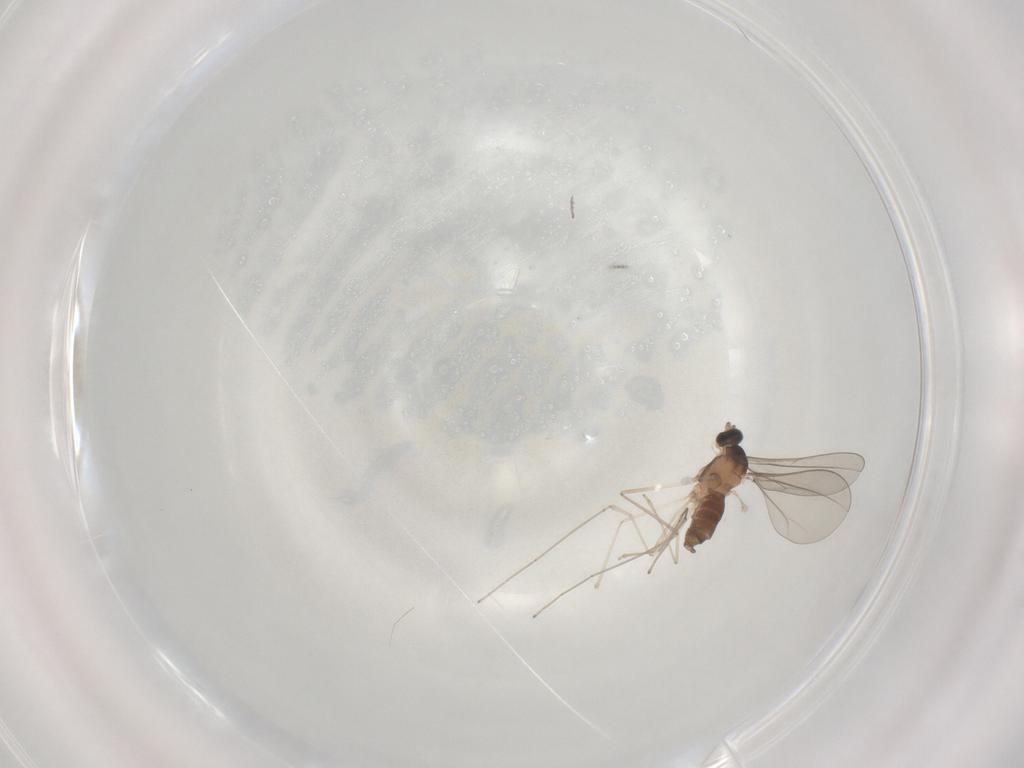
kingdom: Animalia
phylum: Arthropoda
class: Insecta
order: Diptera
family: Cecidomyiidae
